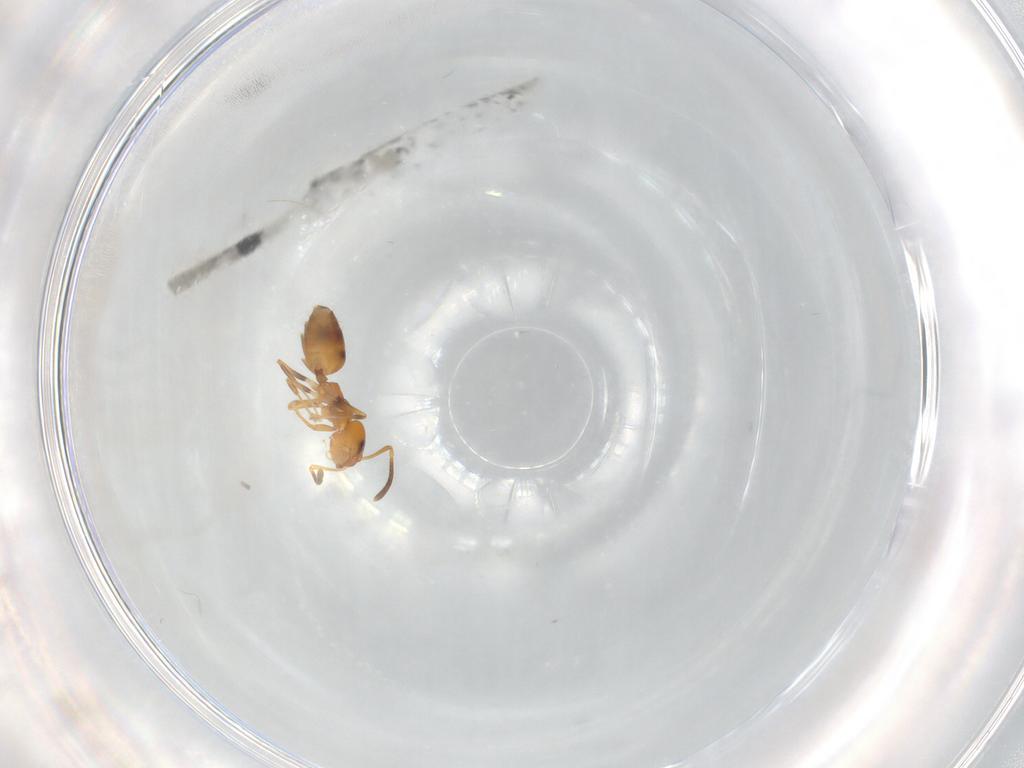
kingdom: Animalia
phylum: Arthropoda
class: Insecta
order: Hymenoptera
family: Formicidae
